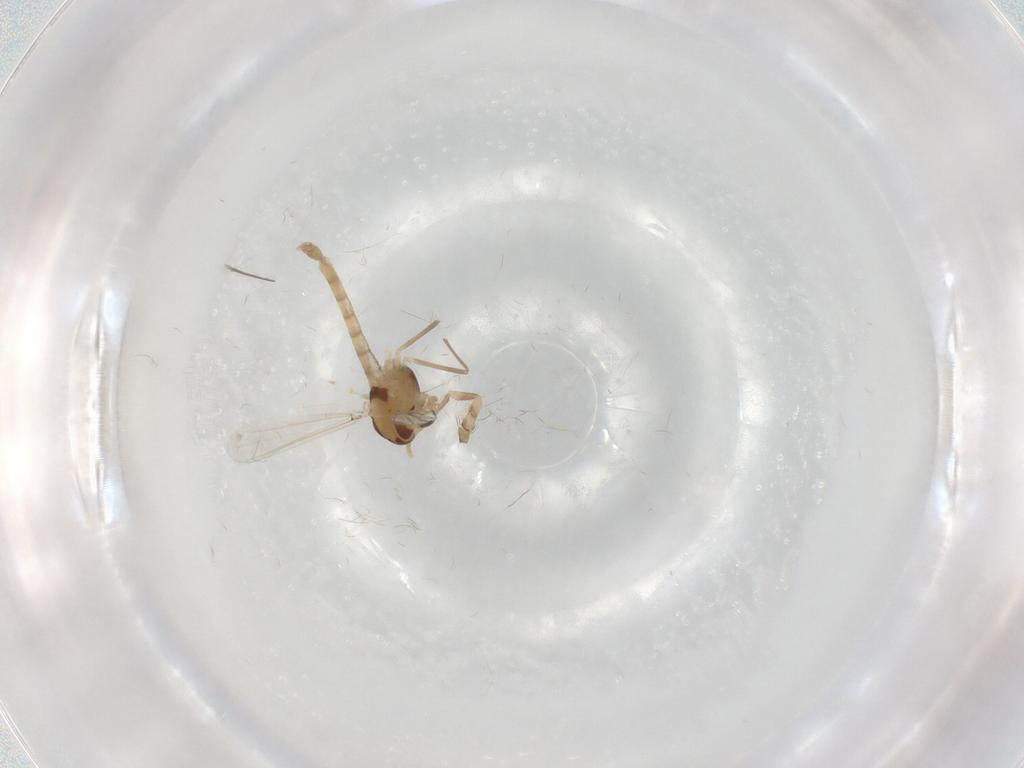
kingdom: Animalia
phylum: Arthropoda
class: Insecta
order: Diptera
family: Chironomidae
